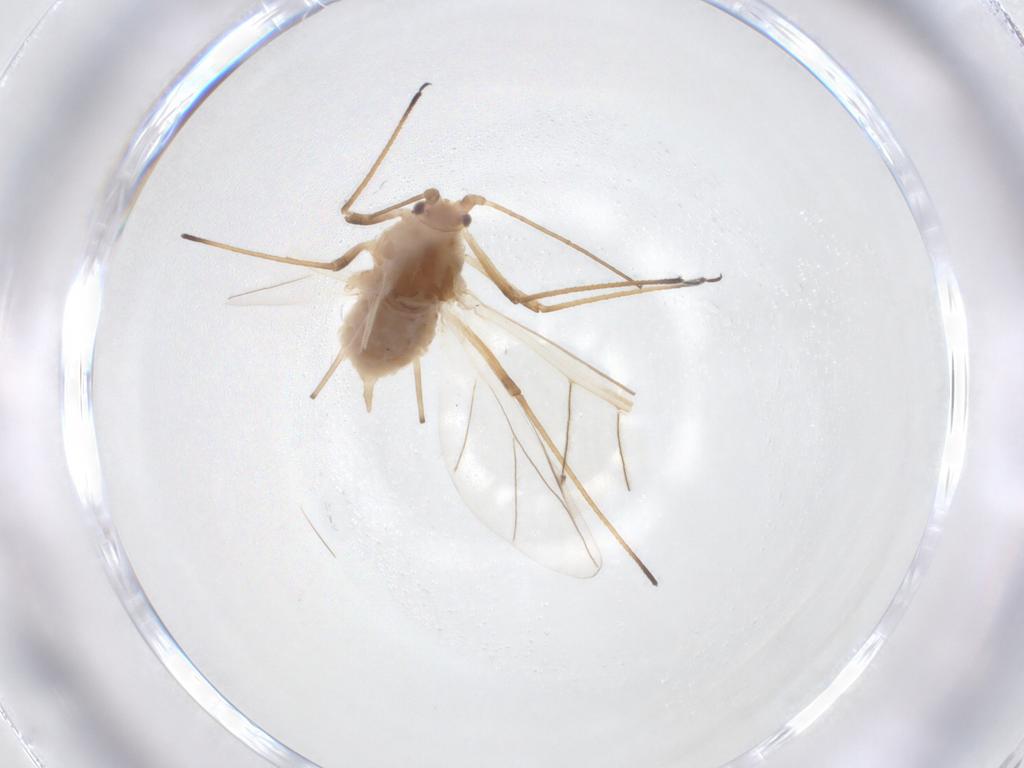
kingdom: Animalia
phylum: Arthropoda
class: Insecta
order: Hemiptera
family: Aphididae
